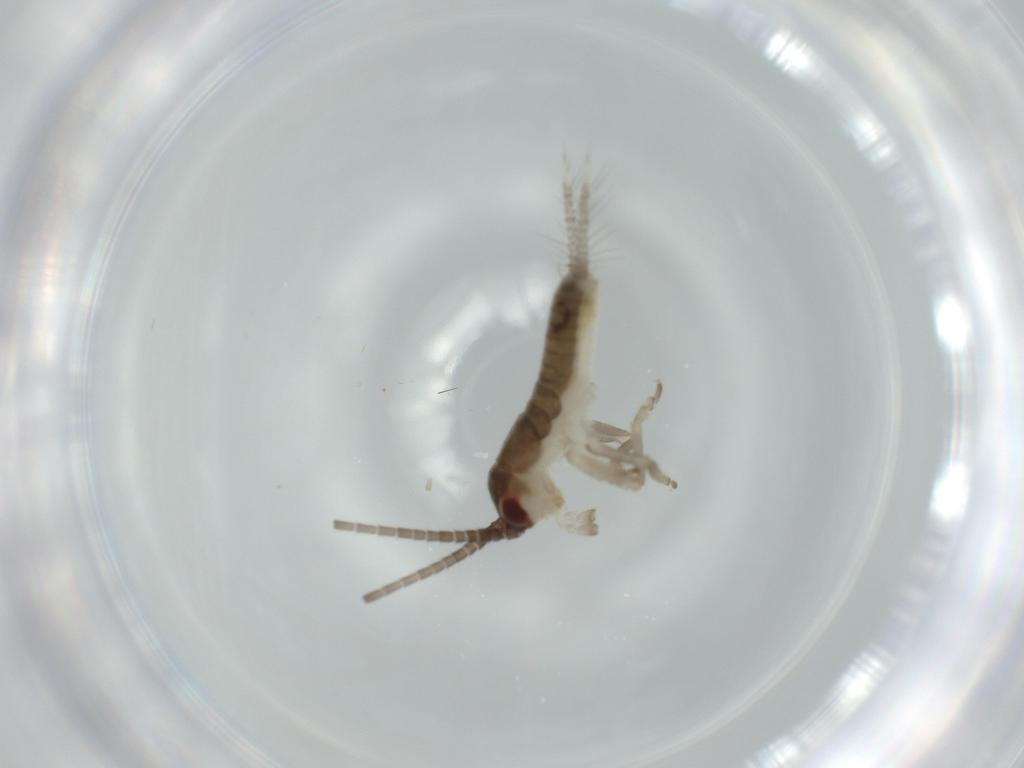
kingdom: Animalia
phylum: Arthropoda
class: Insecta
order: Orthoptera
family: Gryllidae
